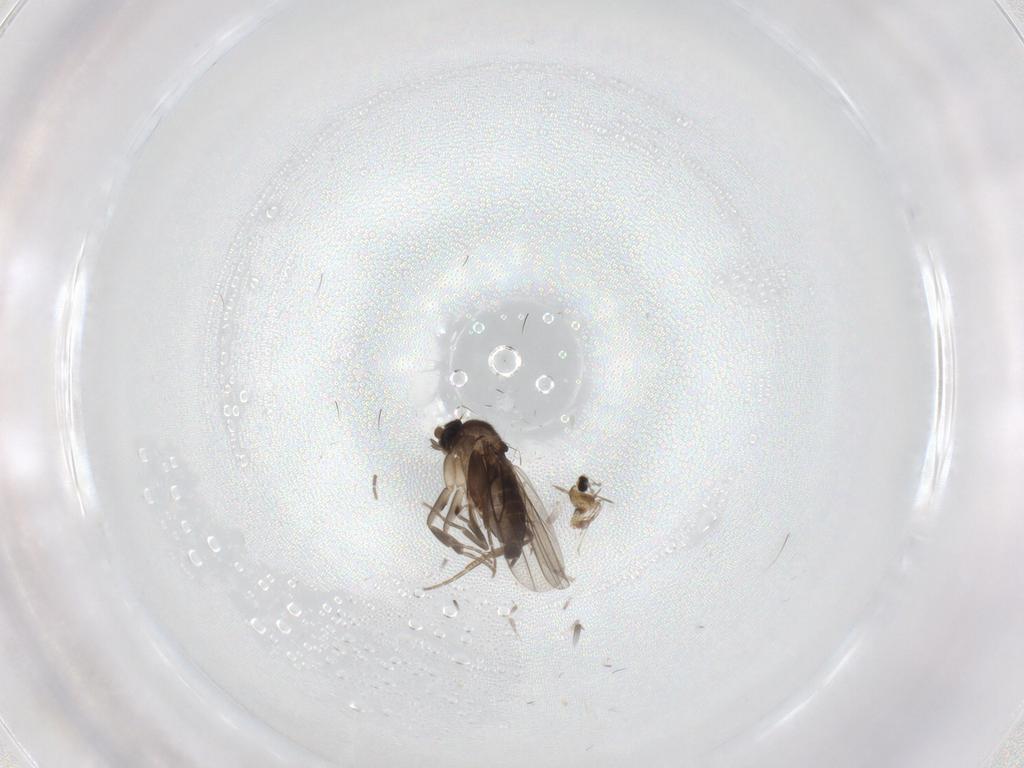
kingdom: Animalia
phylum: Arthropoda
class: Insecta
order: Diptera
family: Phoridae
